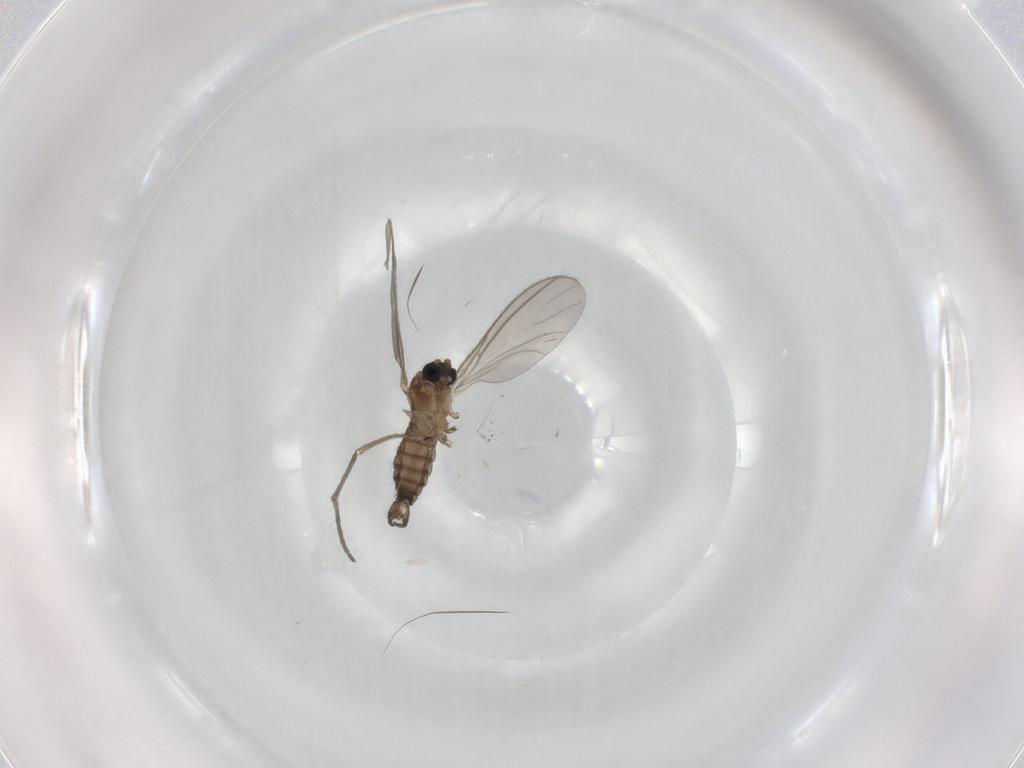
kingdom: Animalia
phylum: Arthropoda
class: Insecta
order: Diptera
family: Sciaridae
